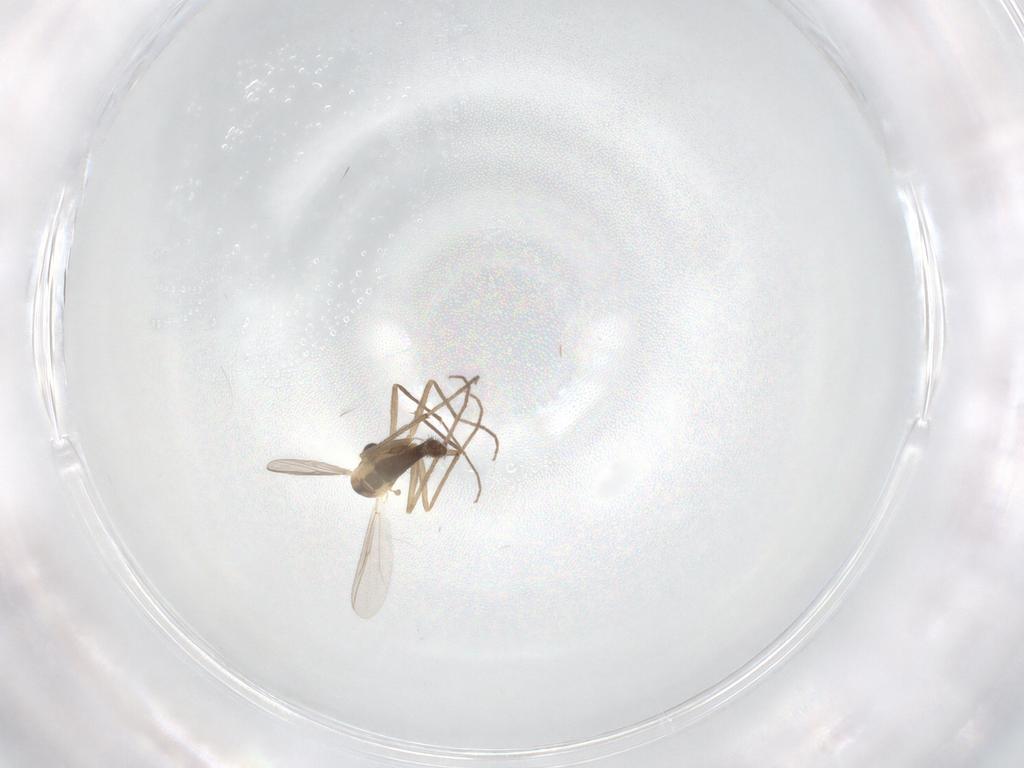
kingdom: Animalia
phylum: Arthropoda
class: Insecta
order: Diptera
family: Chironomidae
